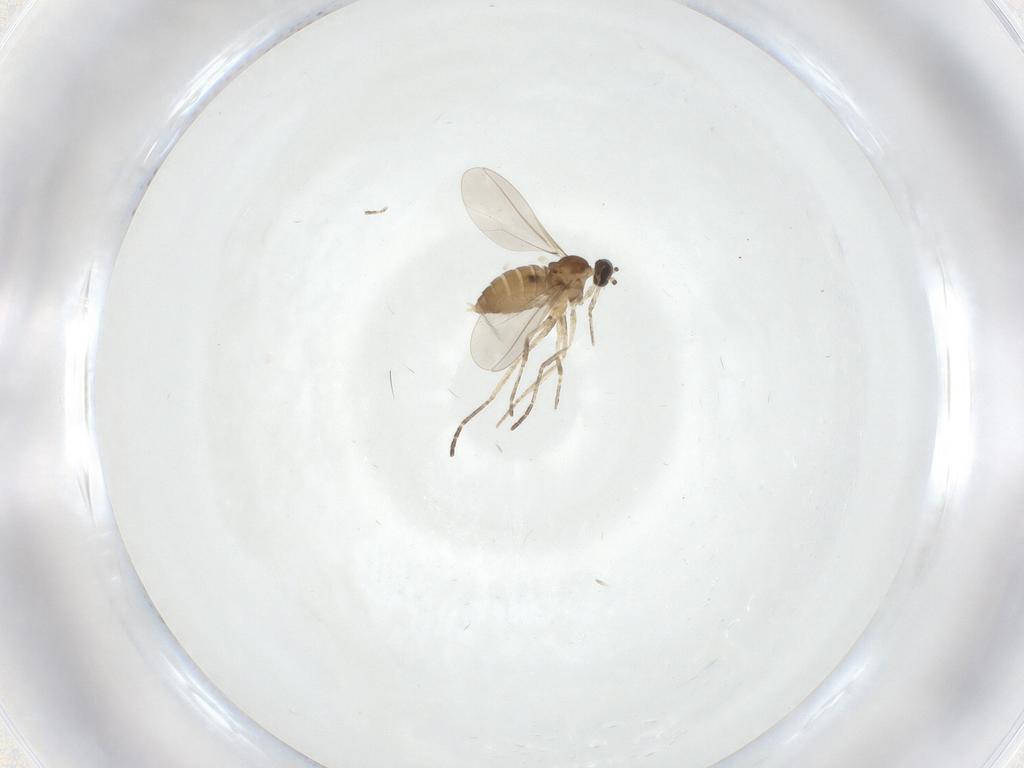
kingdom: Animalia
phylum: Arthropoda
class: Insecta
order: Diptera
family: Cecidomyiidae
